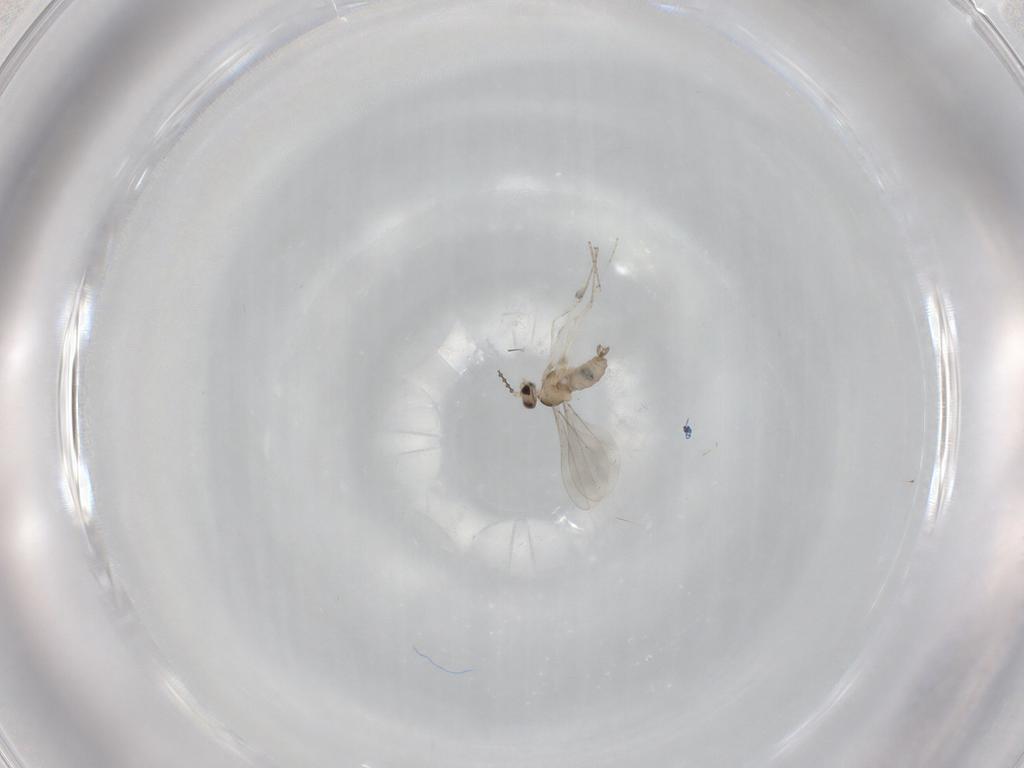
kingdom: Animalia
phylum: Arthropoda
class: Insecta
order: Diptera
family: Cecidomyiidae
